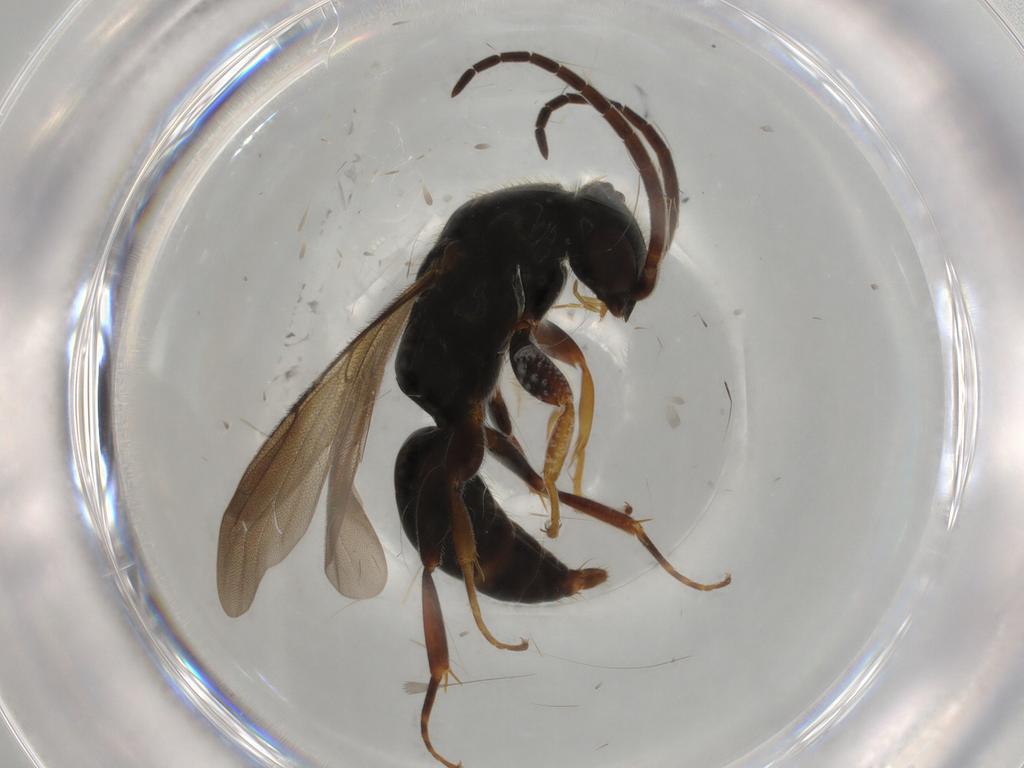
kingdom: Animalia
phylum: Arthropoda
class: Insecta
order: Hymenoptera
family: Bethylidae
